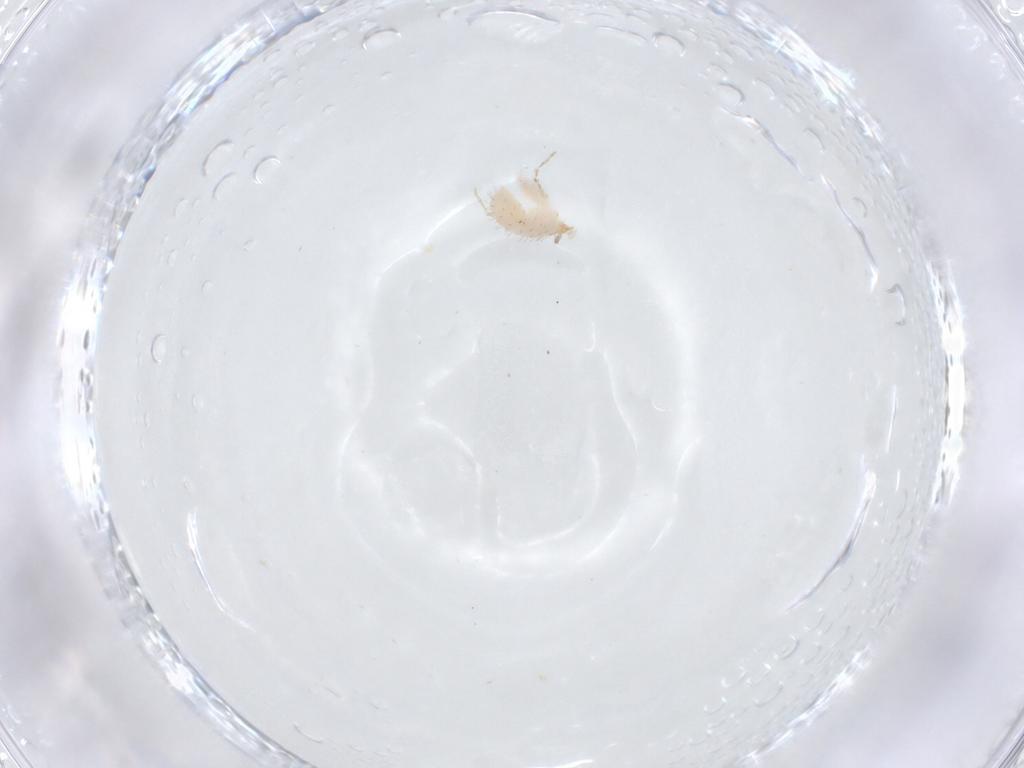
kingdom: Animalia
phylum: Arthropoda
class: Insecta
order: Diptera
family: Tachinidae
